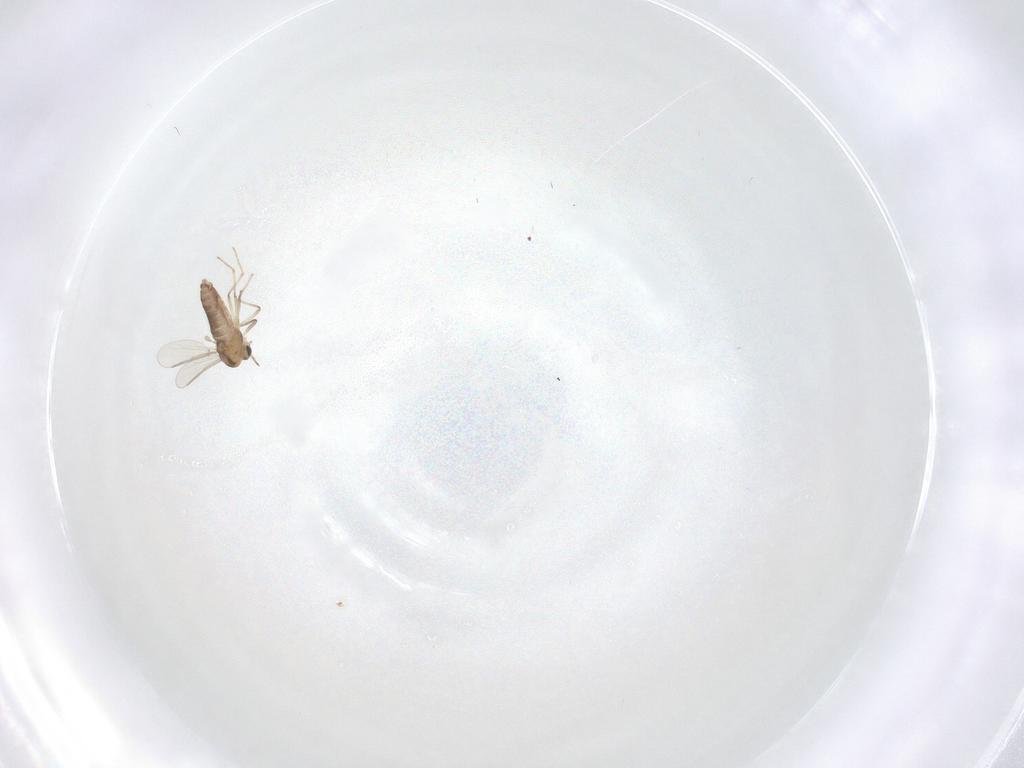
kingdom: Animalia
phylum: Arthropoda
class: Insecta
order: Diptera
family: Chironomidae
